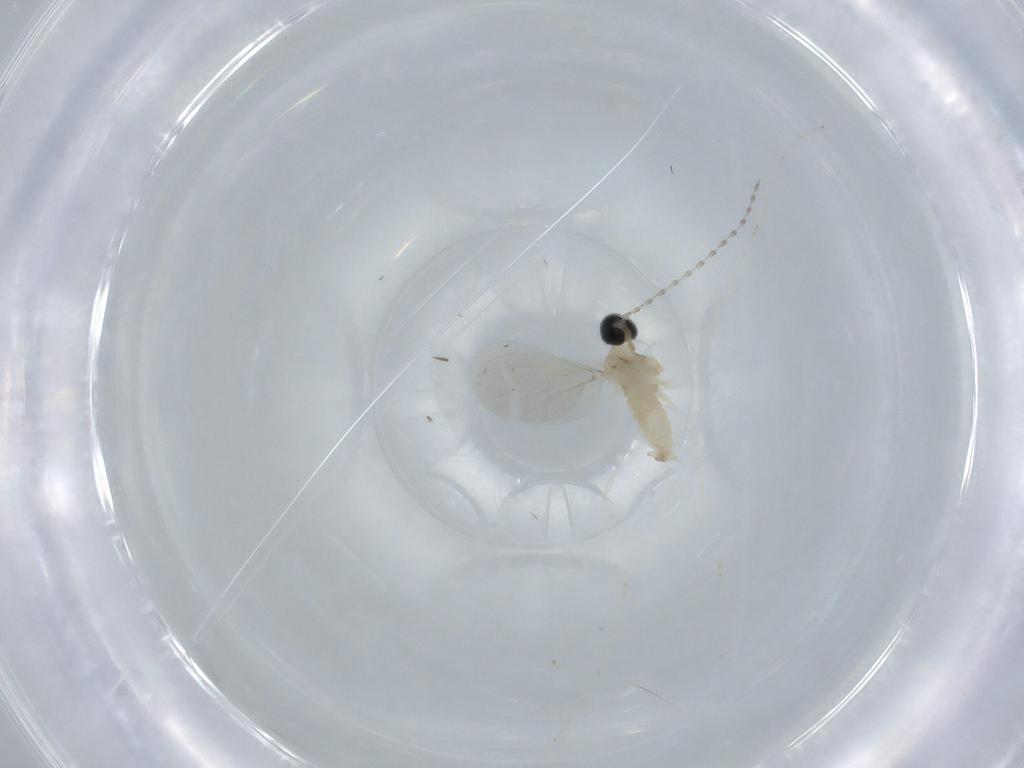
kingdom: Animalia
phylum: Arthropoda
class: Insecta
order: Diptera
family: Cecidomyiidae
